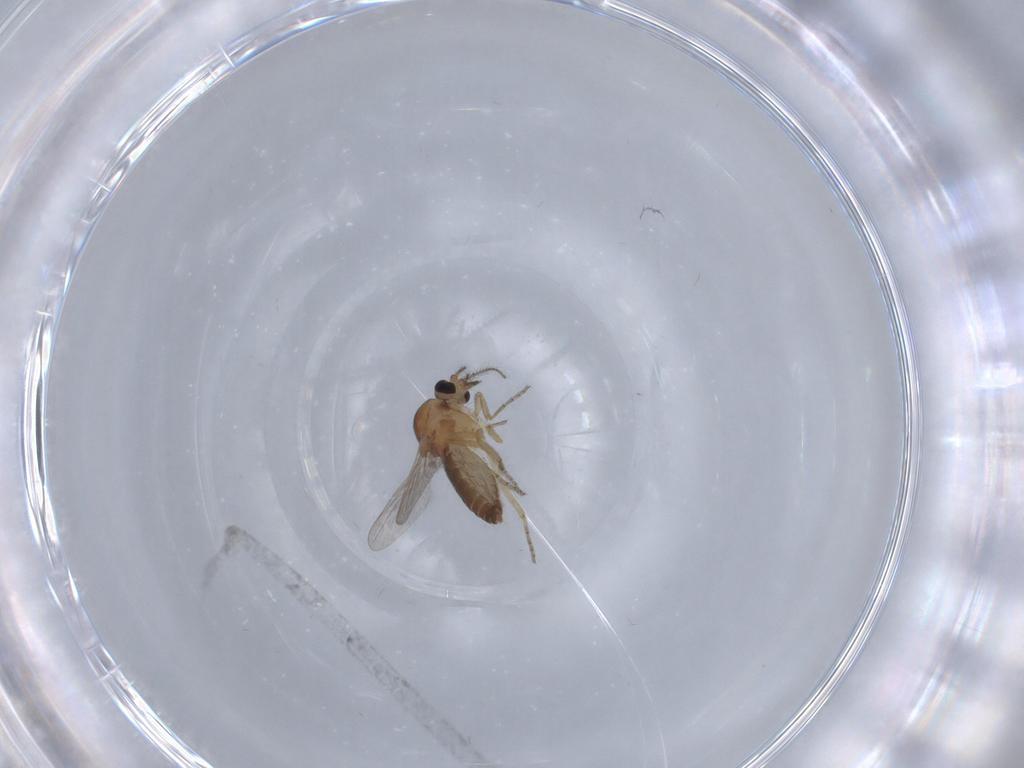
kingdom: Animalia
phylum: Arthropoda
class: Insecta
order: Diptera
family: Ceratopogonidae
